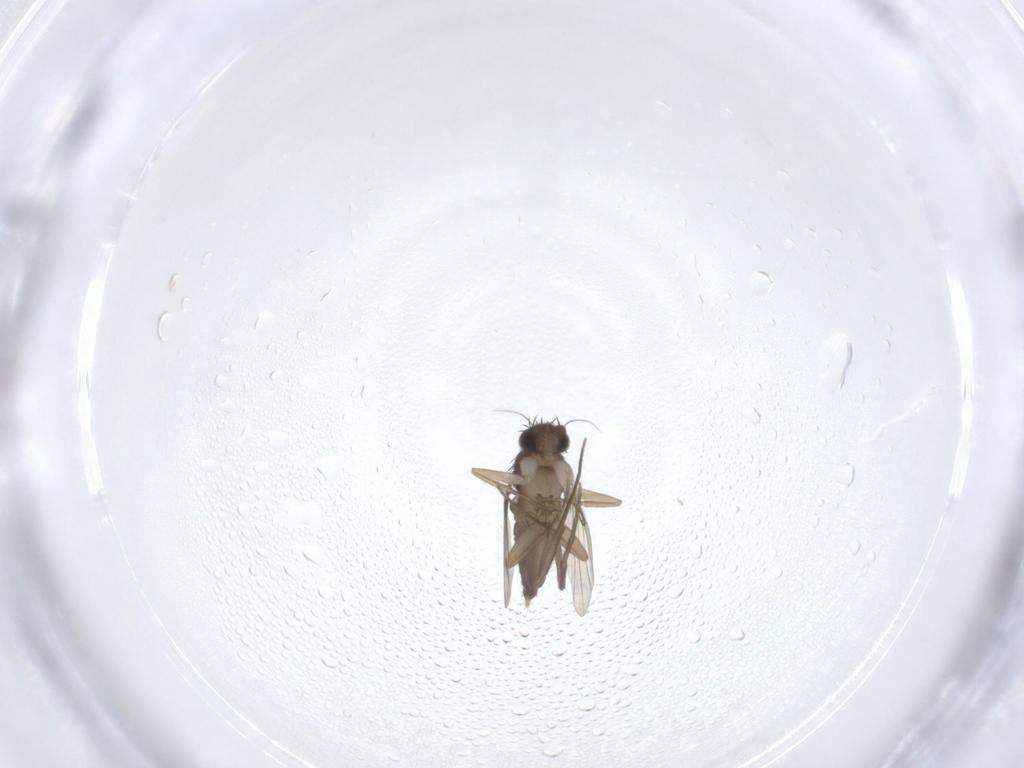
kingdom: Animalia
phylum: Arthropoda
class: Insecta
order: Diptera
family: Phoridae
